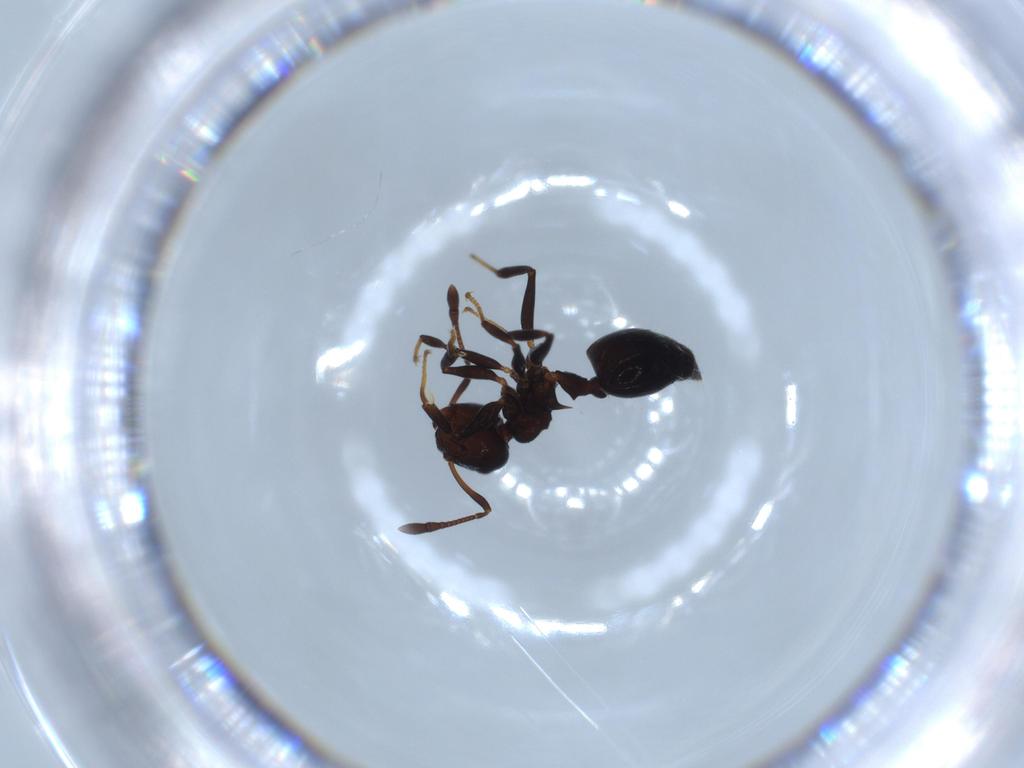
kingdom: Animalia
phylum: Arthropoda
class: Insecta
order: Hymenoptera
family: Formicidae
